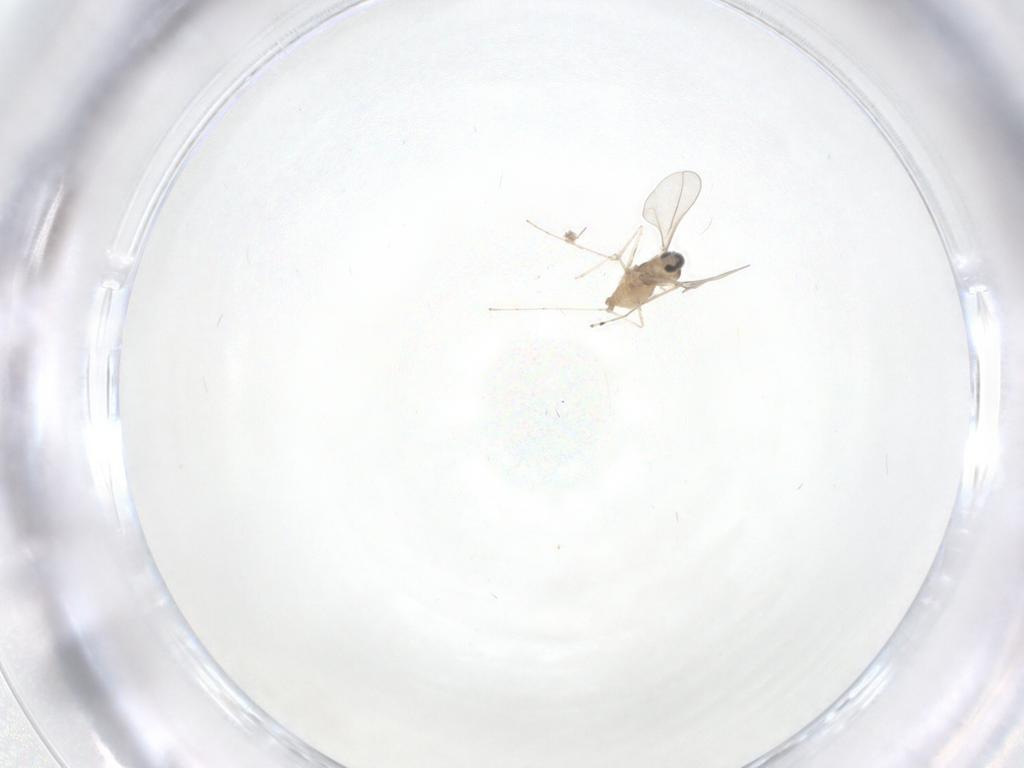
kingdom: Animalia
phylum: Arthropoda
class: Insecta
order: Diptera
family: Cecidomyiidae
